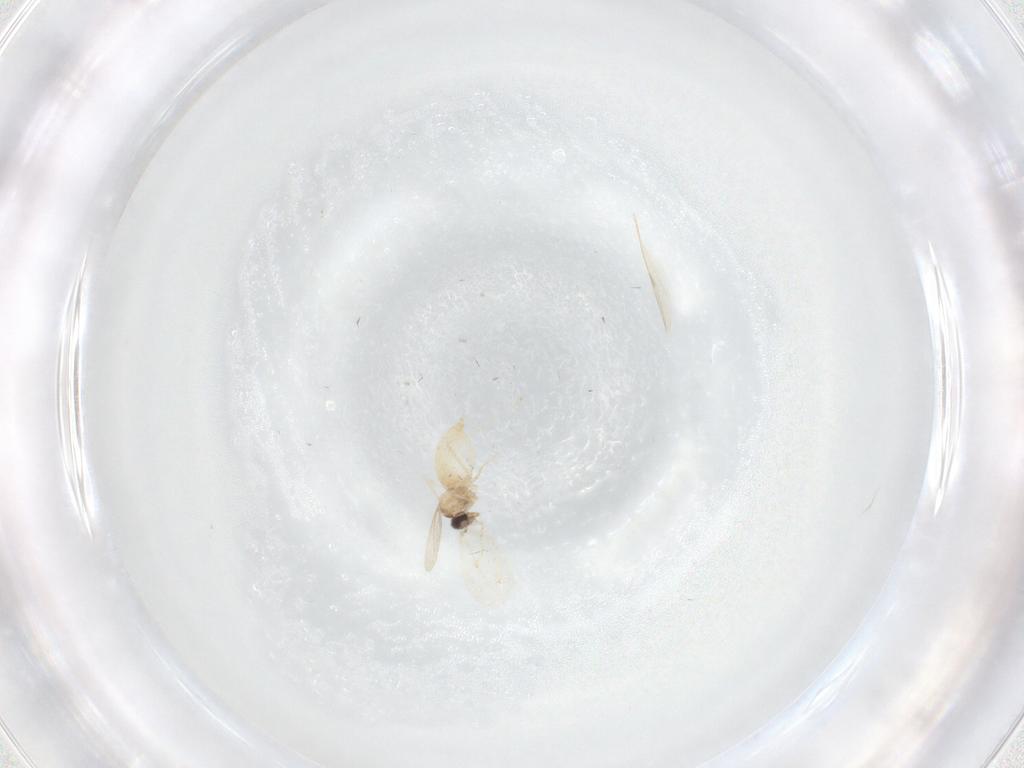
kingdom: Animalia
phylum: Arthropoda
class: Insecta
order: Diptera
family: Cecidomyiidae
